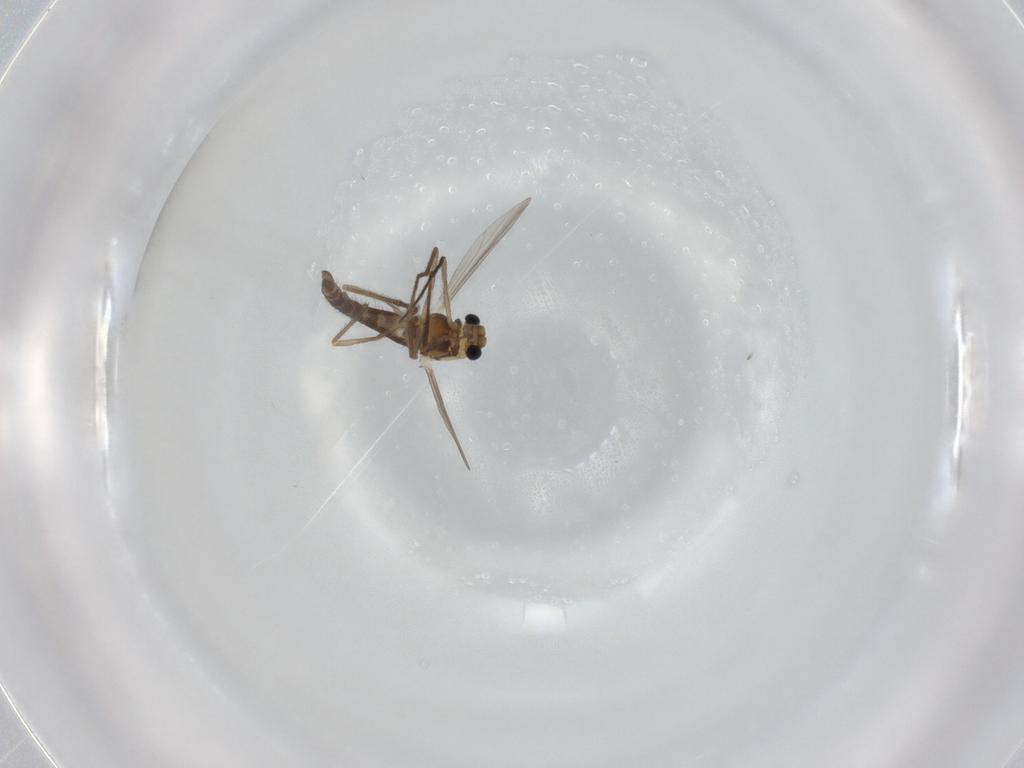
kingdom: Animalia
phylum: Arthropoda
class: Insecta
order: Diptera
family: Chironomidae
